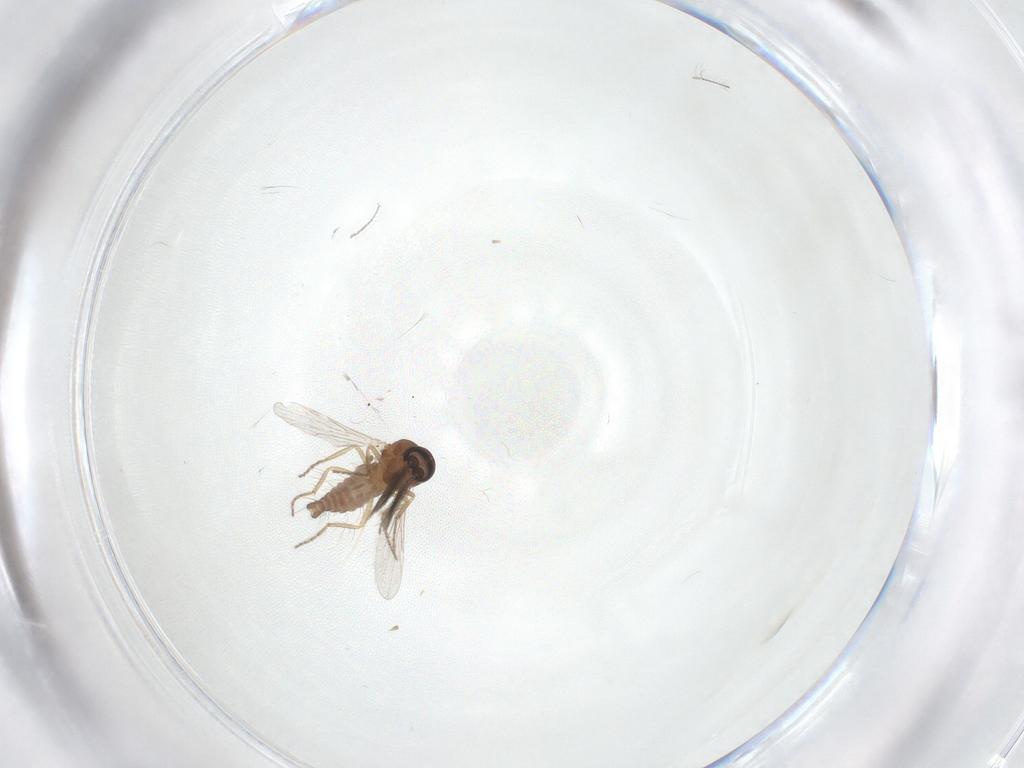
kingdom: Animalia
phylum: Arthropoda
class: Insecta
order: Diptera
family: Chironomidae
